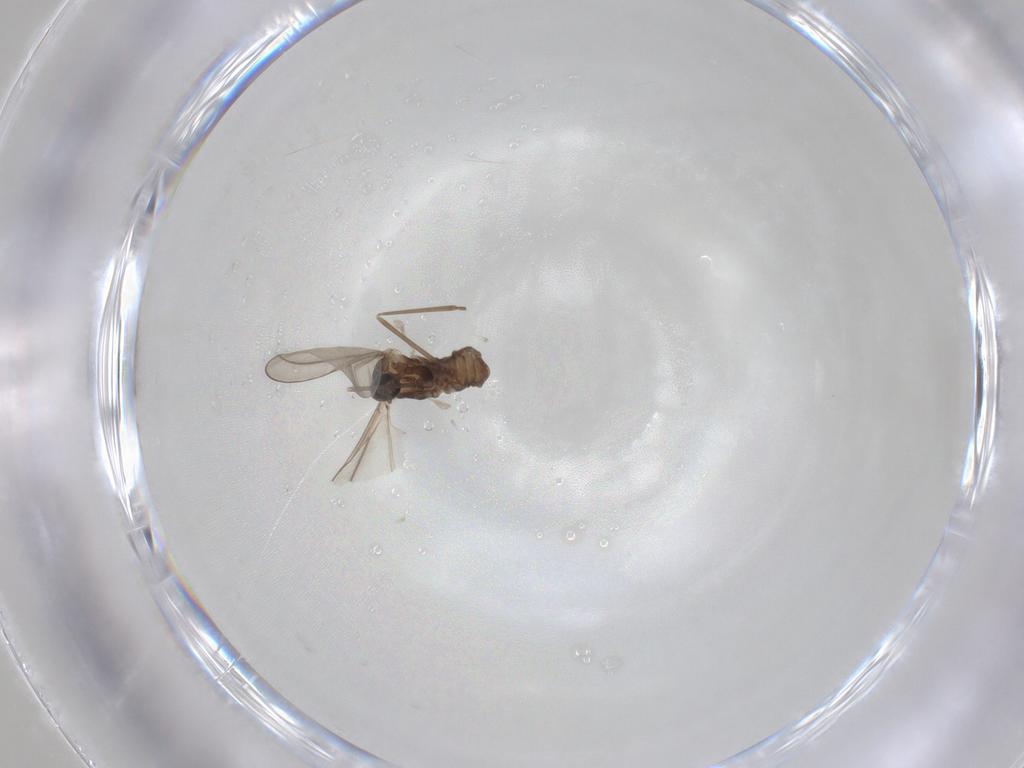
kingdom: Animalia
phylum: Arthropoda
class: Insecta
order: Diptera
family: Cecidomyiidae
